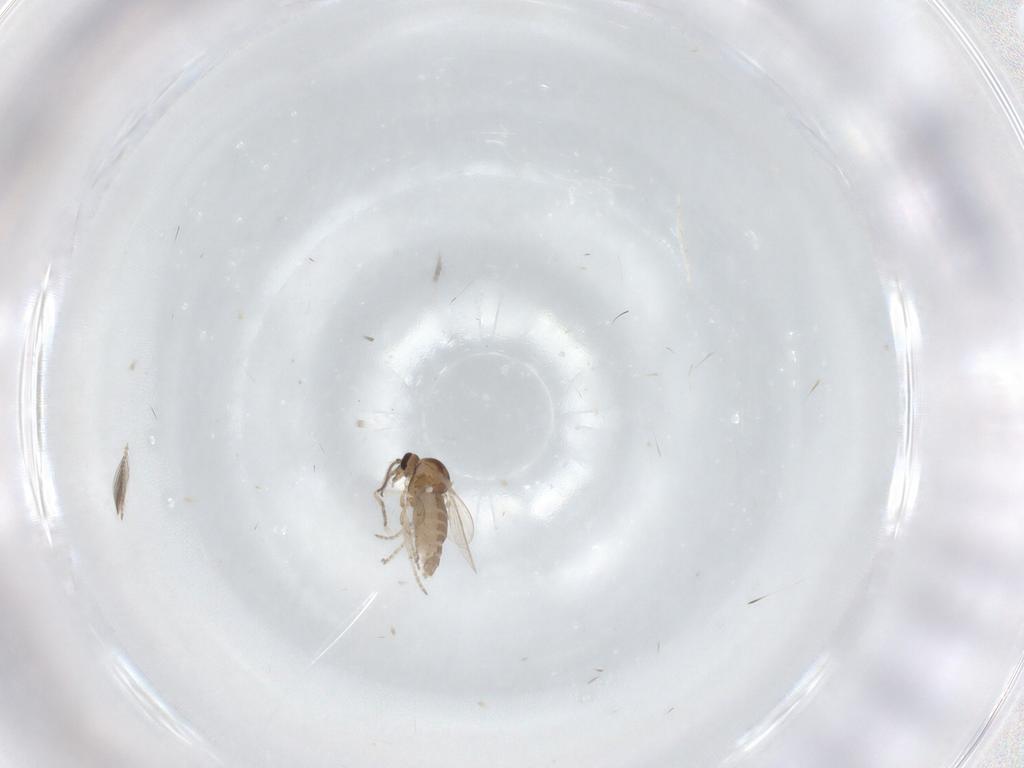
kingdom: Animalia
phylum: Arthropoda
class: Insecta
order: Diptera
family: Ceratopogonidae
